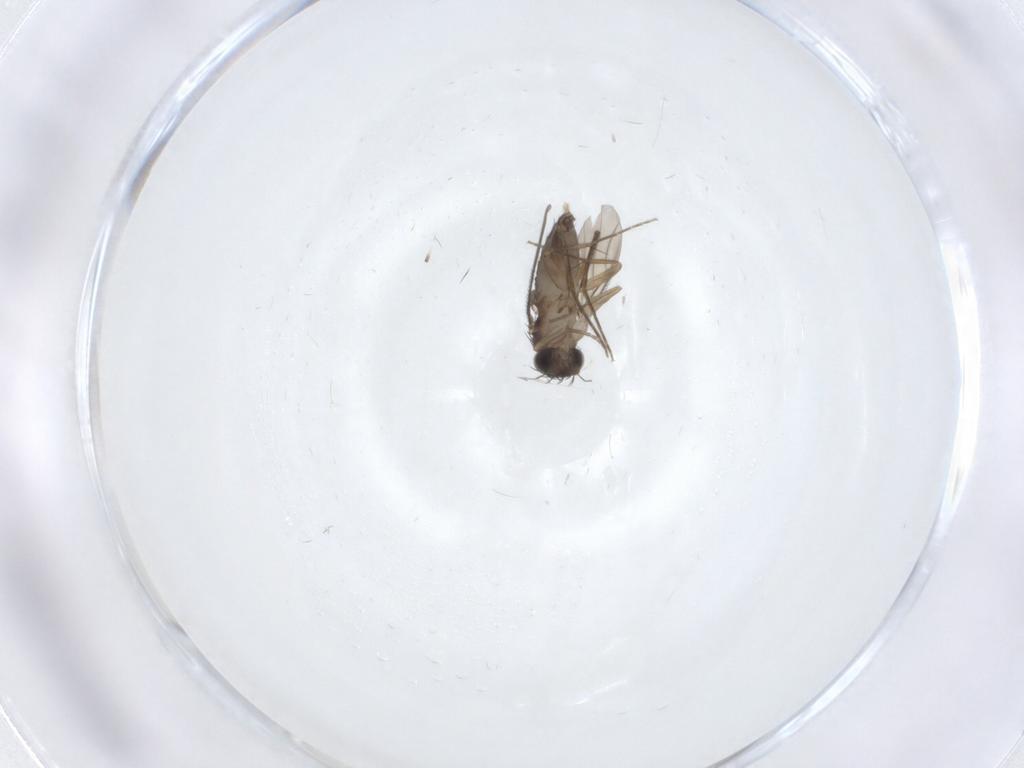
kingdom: Animalia
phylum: Arthropoda
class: Insecta
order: Diptera
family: Phoridae
